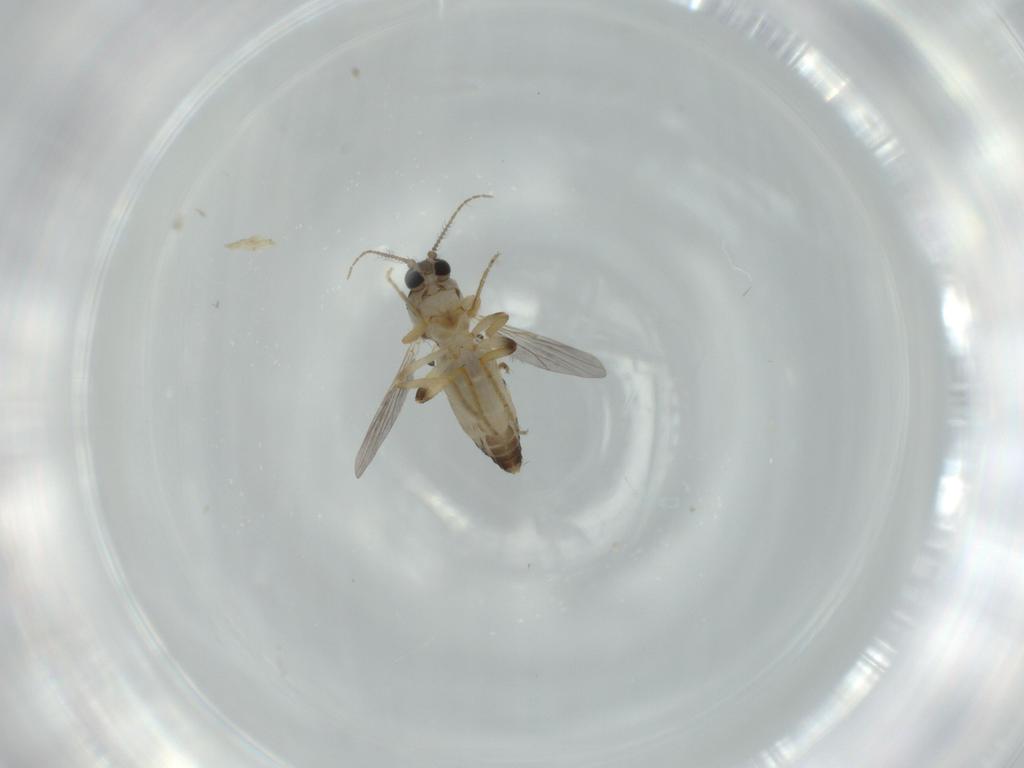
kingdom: Animalia
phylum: Arthropoda
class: Insecta
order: Diptera
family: Ceratopogonidae
